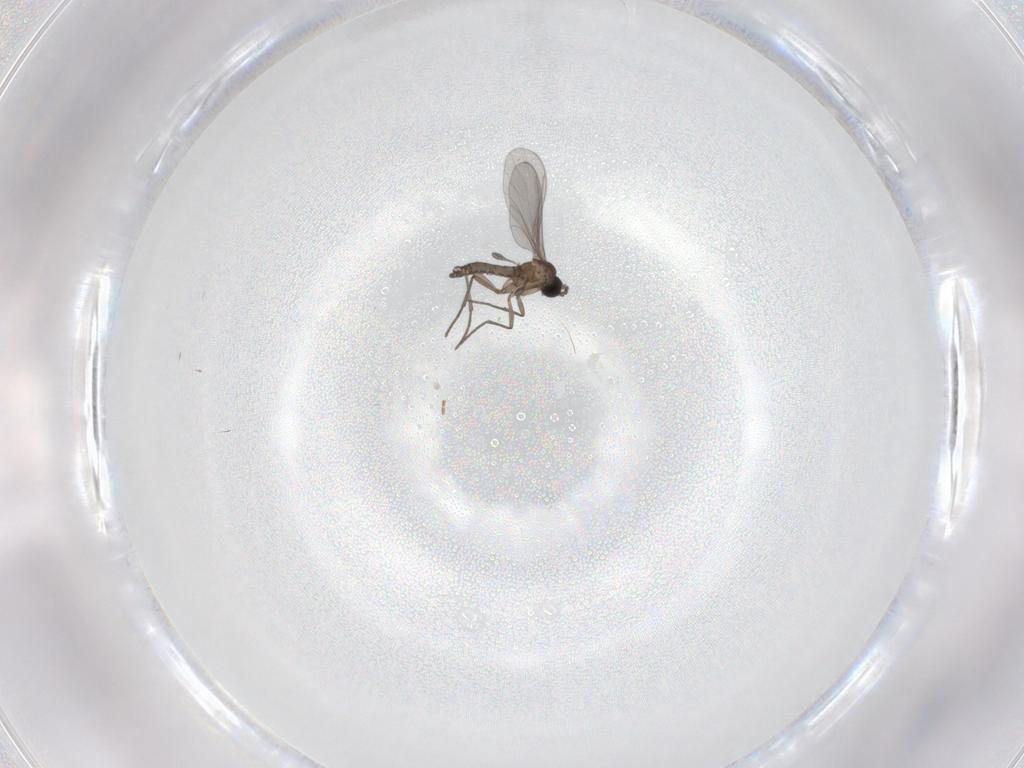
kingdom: Animalia
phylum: Arthropoda
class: Insecta
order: Diptera
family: Sciaridae
